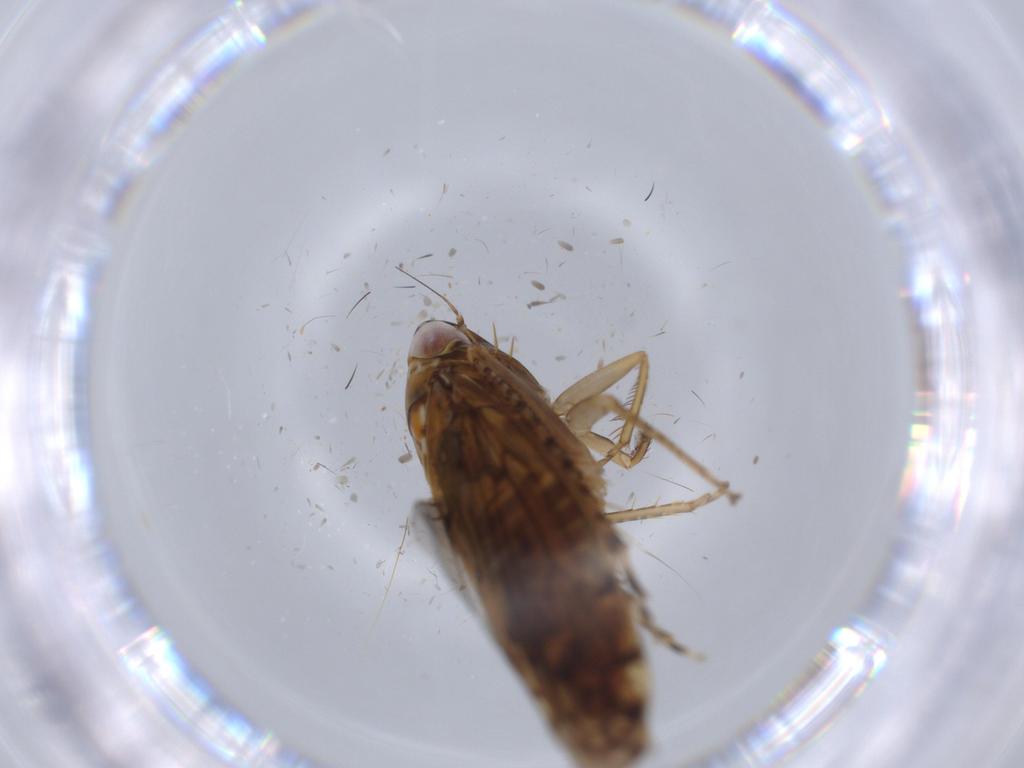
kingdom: Animalia
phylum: Arthropoda
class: Insecta
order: Hemiptera
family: Cicadellidae
